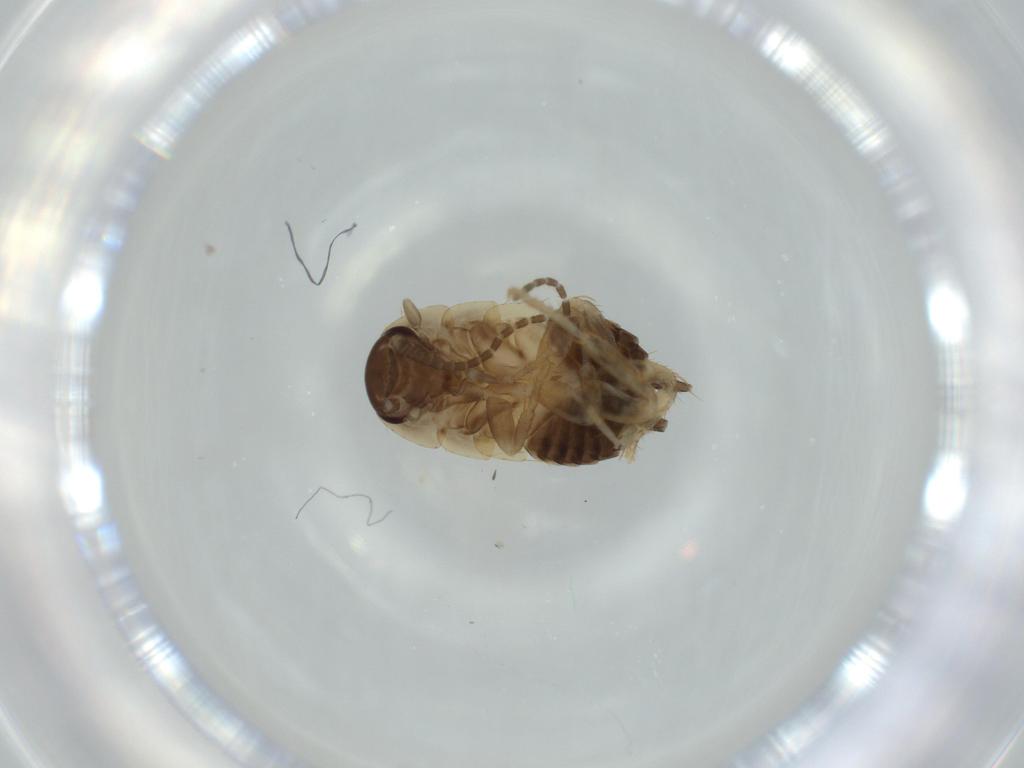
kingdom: Animalia
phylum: Arthropoda
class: Insecta
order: Blattodea
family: Ectobiidae
